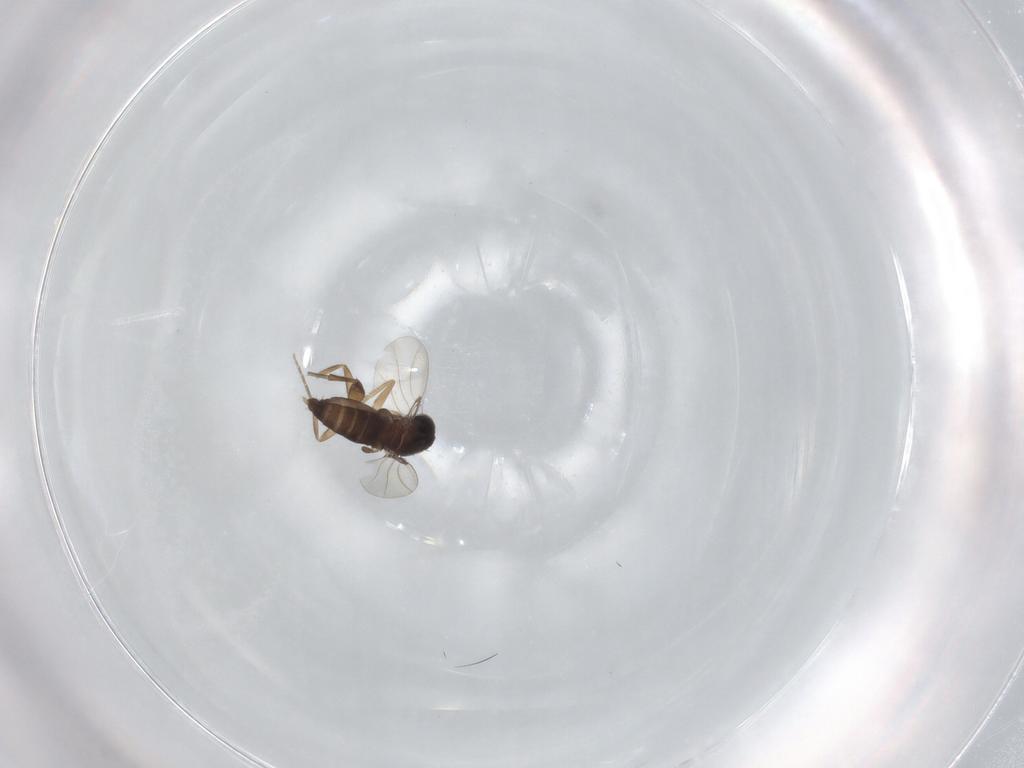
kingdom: Animalia
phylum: Arthropoda
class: Insecta
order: Diptera
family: Phoridae
